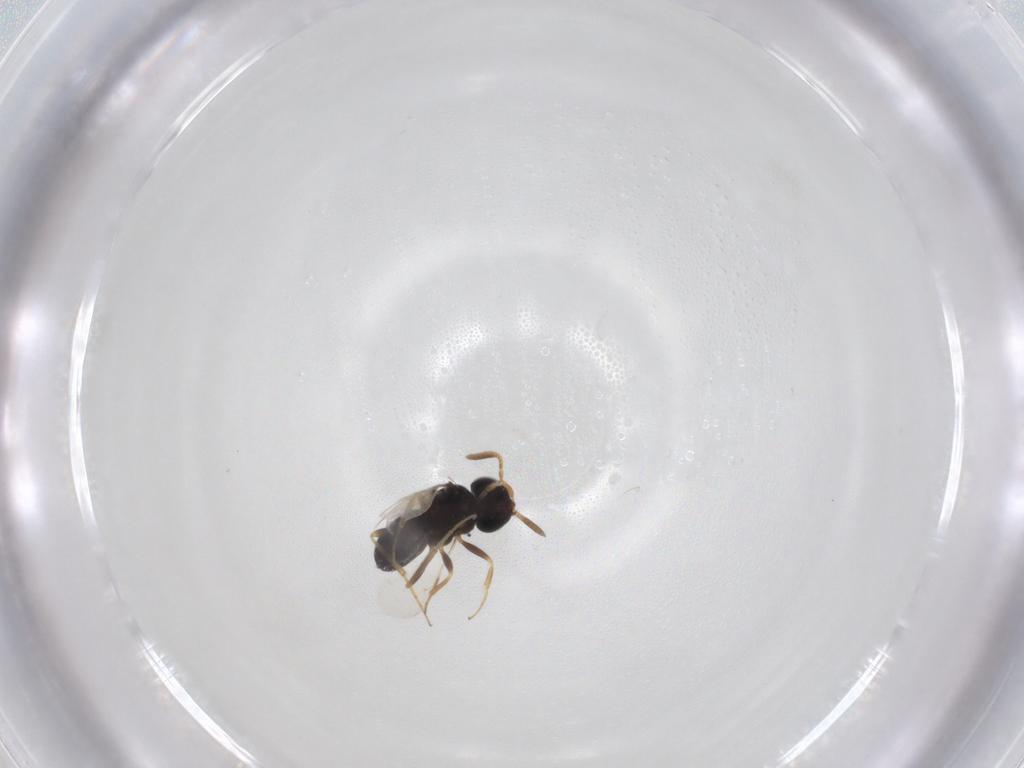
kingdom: Animalia
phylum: Arthropoda
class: Insecta
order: Hymenoptera
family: Scelionidae
